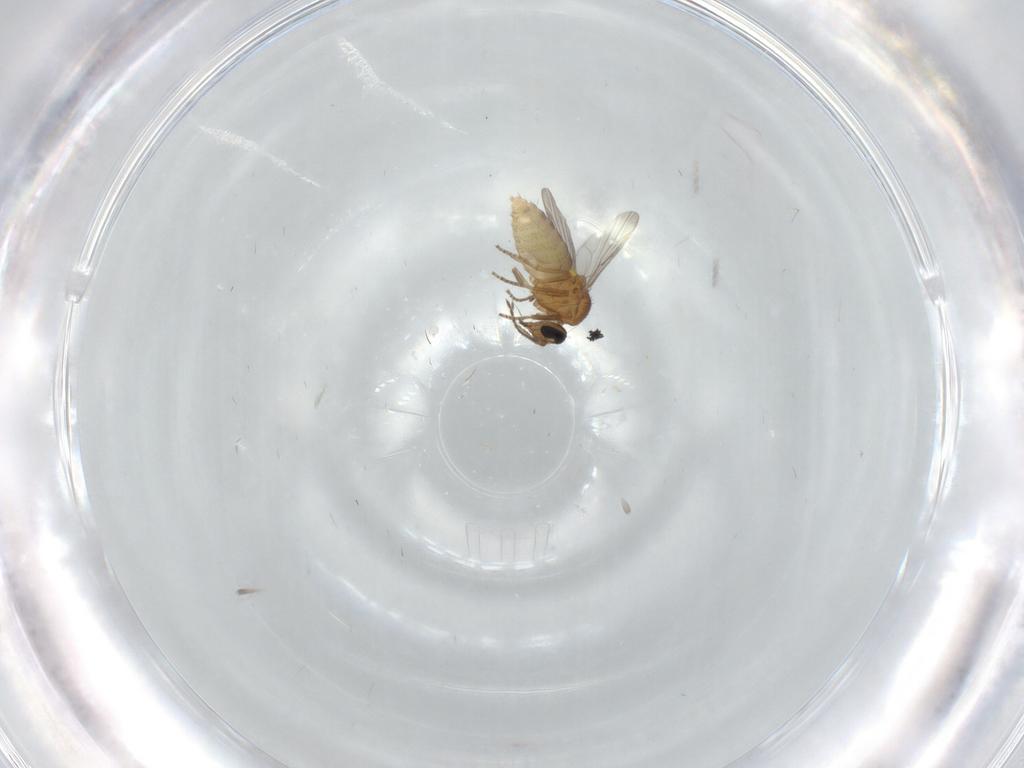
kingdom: Animalia
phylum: Arthropoda
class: Insecta
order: Diptera
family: Ceratopogonidae
